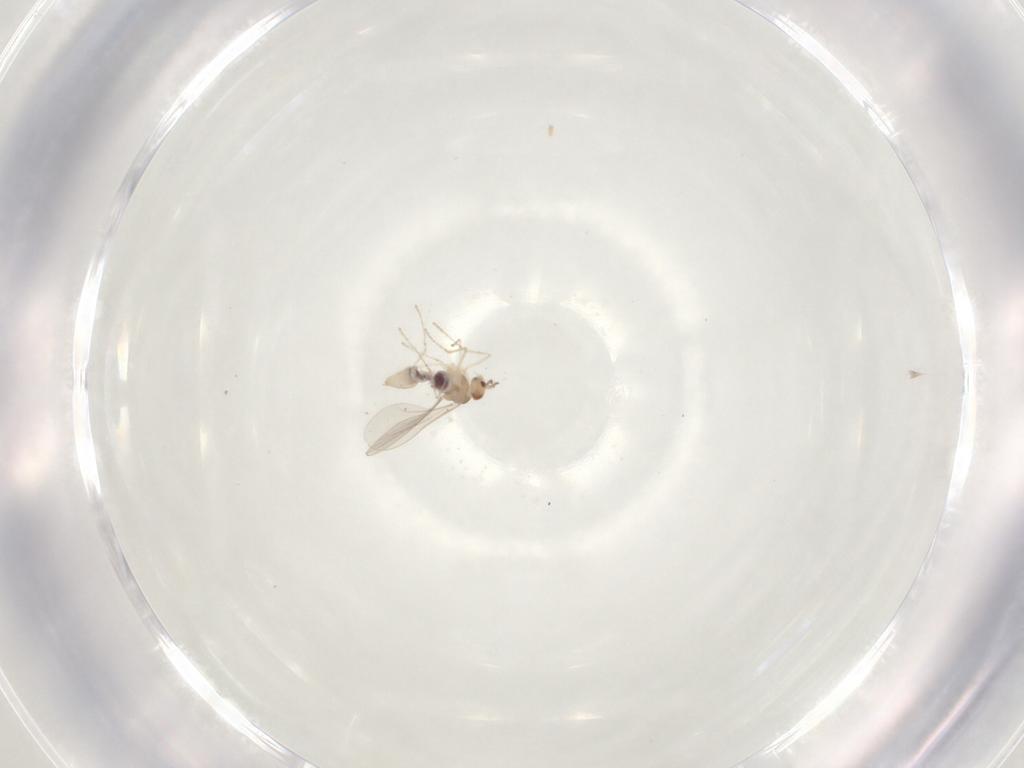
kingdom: Animalia
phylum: Arthropoda
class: Insecta
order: Diptera
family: Cecidomyiidae
